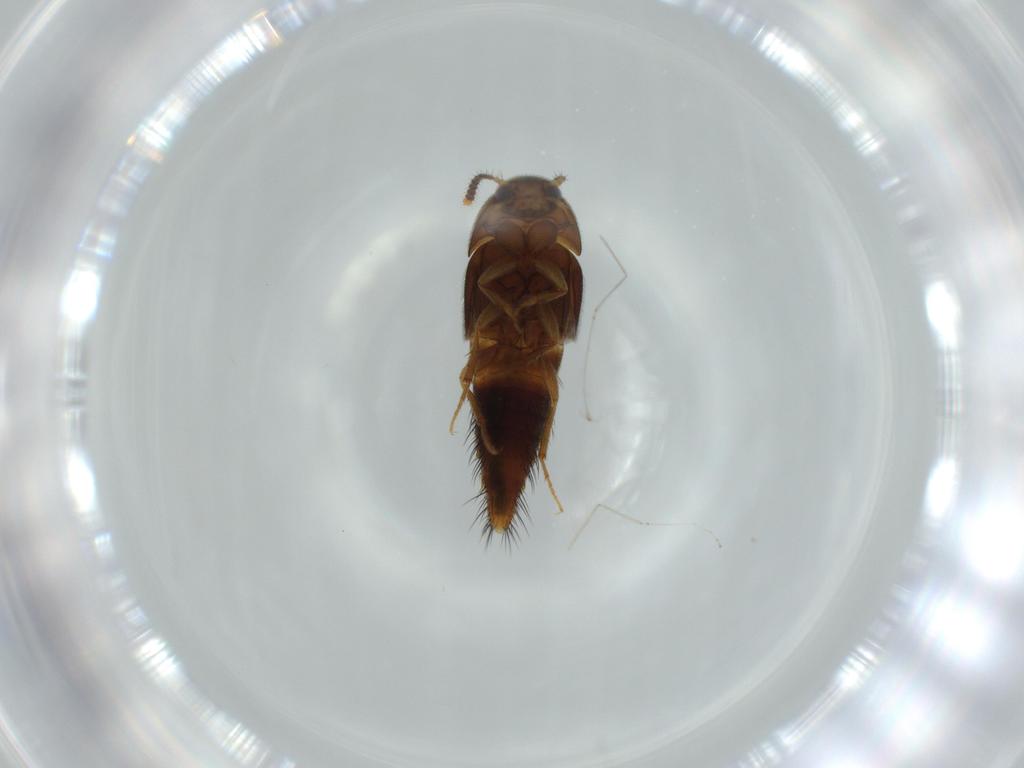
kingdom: Animalia
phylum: Arthropoda
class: Insecta
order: Coleoptera
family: Staphylinidae
